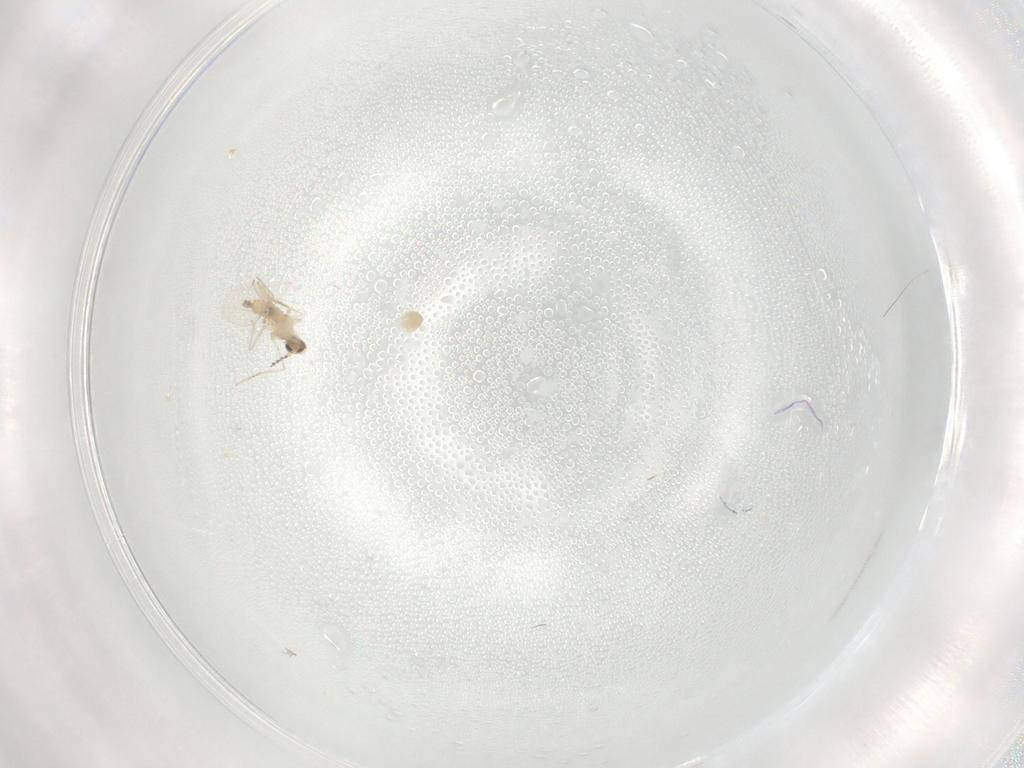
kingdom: Animalia
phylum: Arthropoda
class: Insecta
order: Diptera
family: Cecidomyiidae
